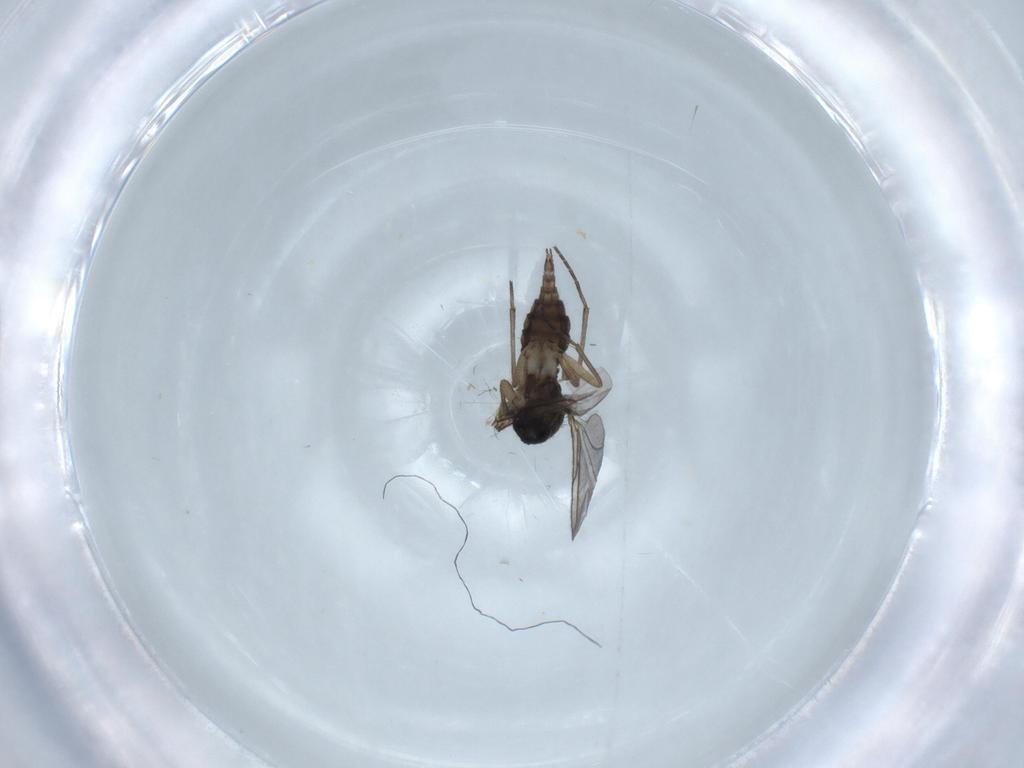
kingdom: Animalia
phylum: Arthropoda
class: Insecta
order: Diptera
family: Sciaridae
